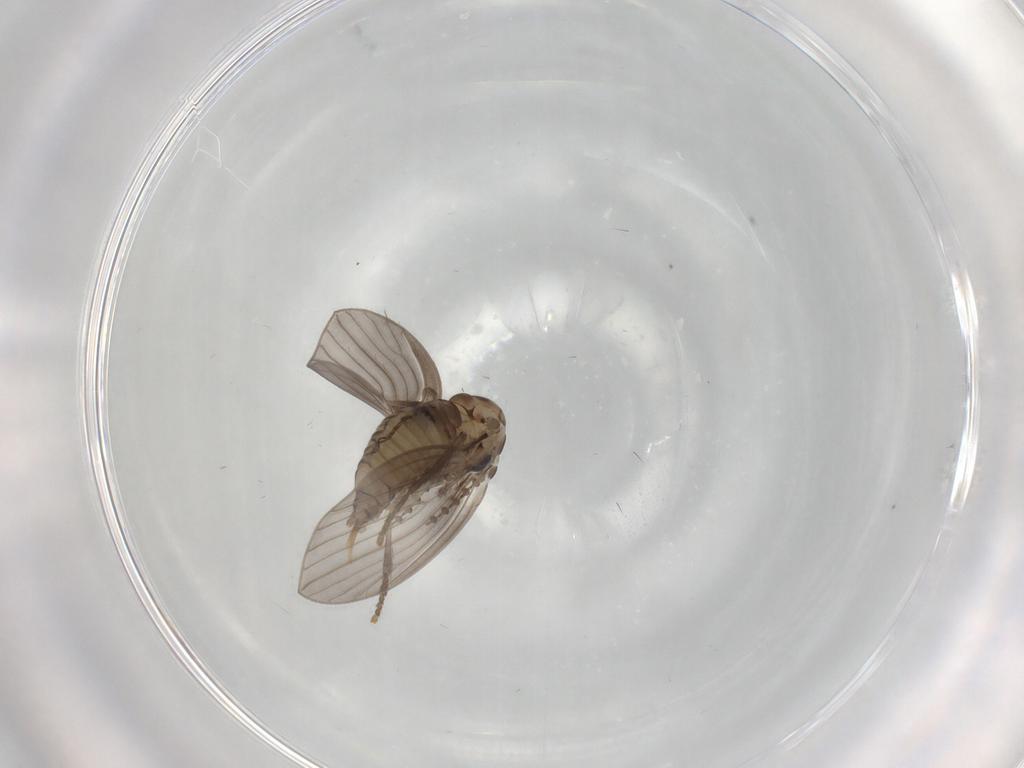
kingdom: Animalia
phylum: Arthropoda
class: Insecta
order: Diptera
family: Psychodidae
